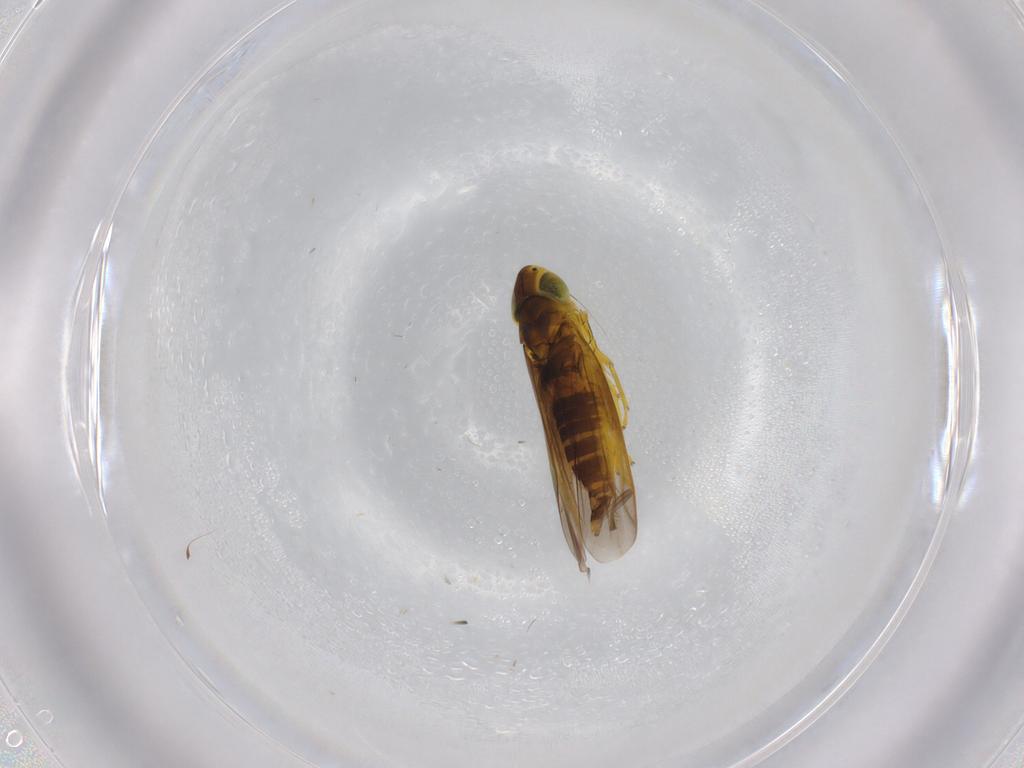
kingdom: Animalia
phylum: Arthropoda
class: Insecta
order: Hemiptera
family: Cicadellidae
